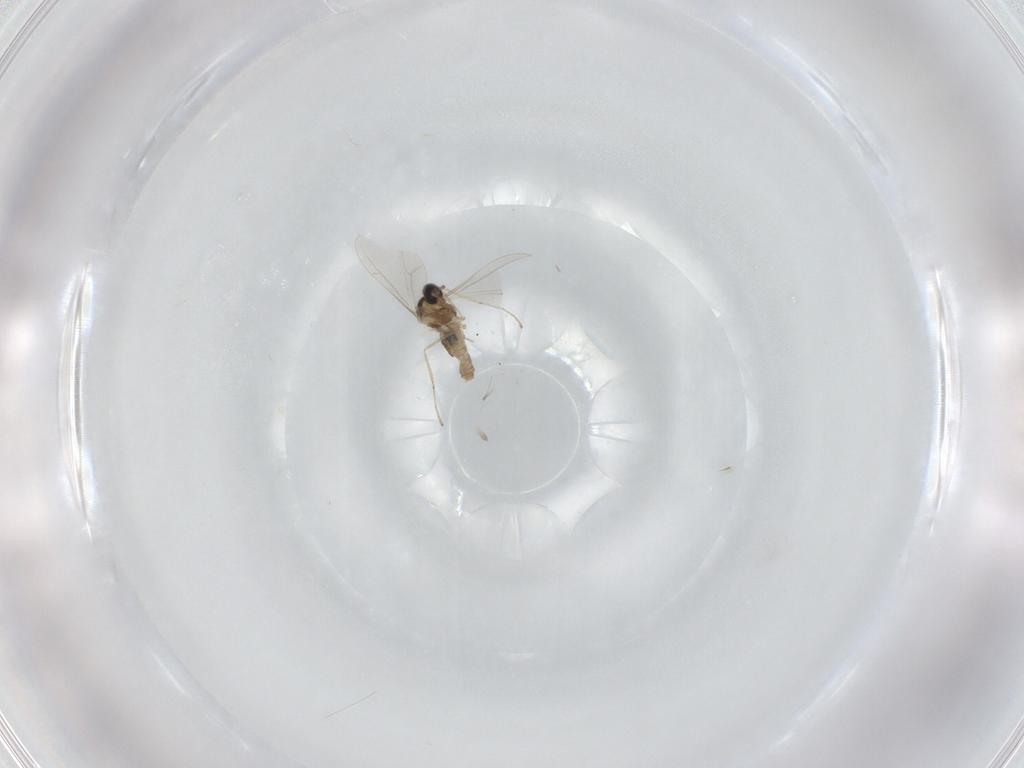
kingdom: Animalia
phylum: Arthropoda
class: Insecta
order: Diptera
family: Cecidomyiidae
